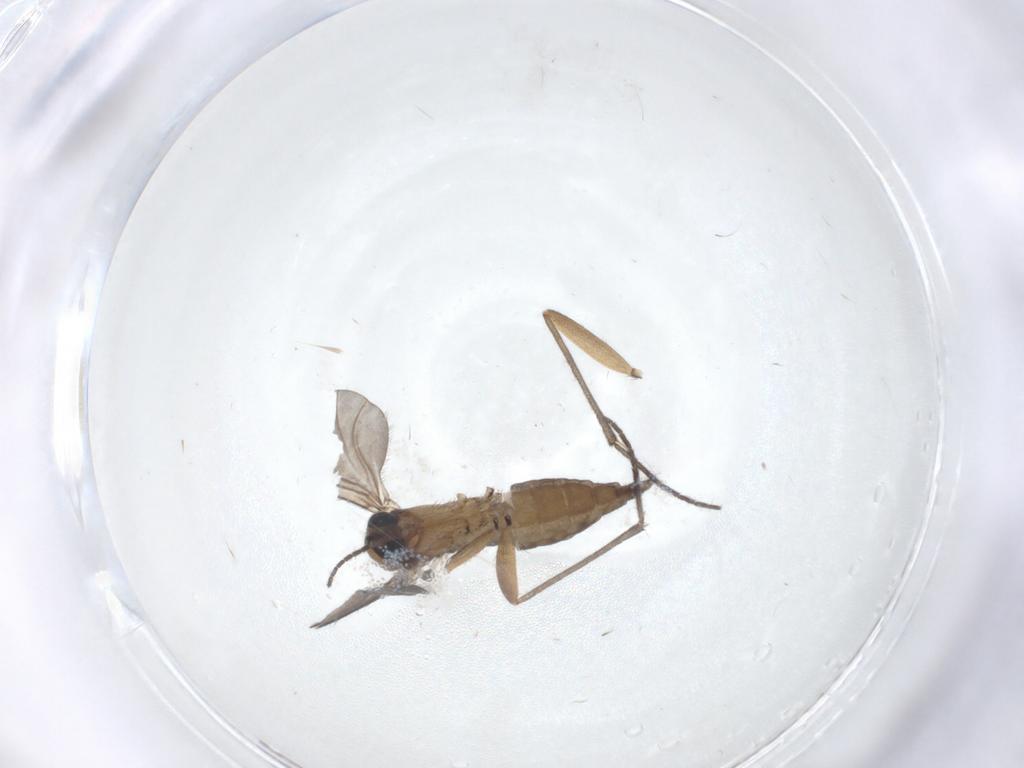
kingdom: Animalia
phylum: Arthropoda
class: Insecta
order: Diptera
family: Sciaridae
